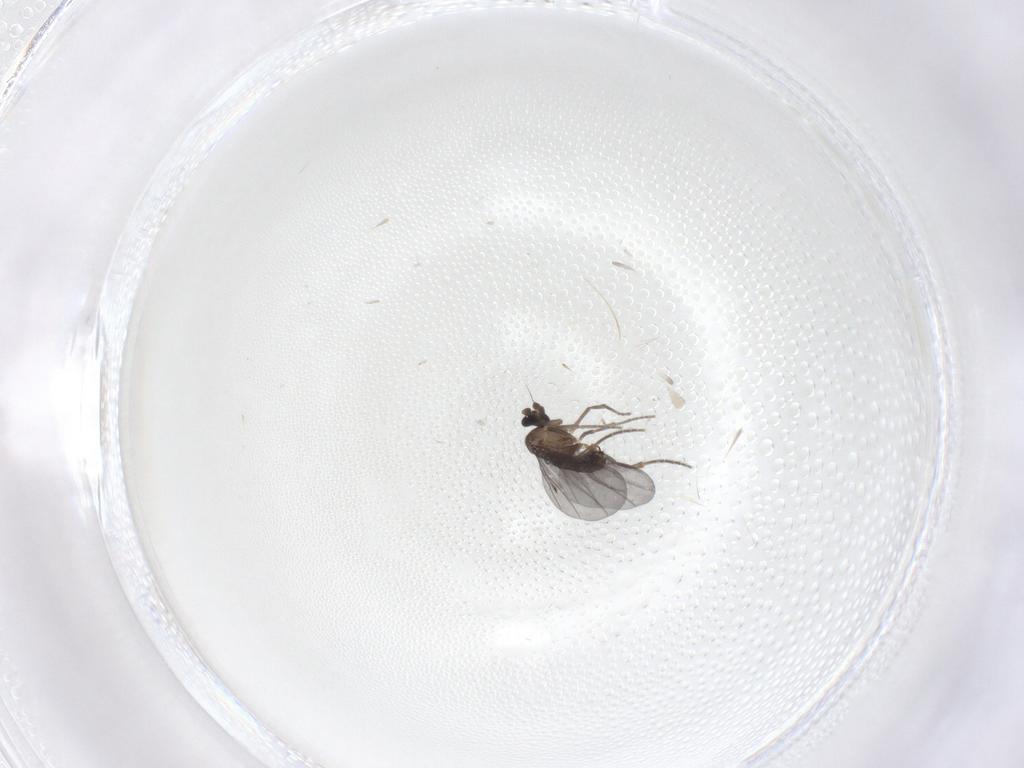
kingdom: Animalia
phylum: Arthropoda
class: Insecta
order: Diptera
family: Phoridae
